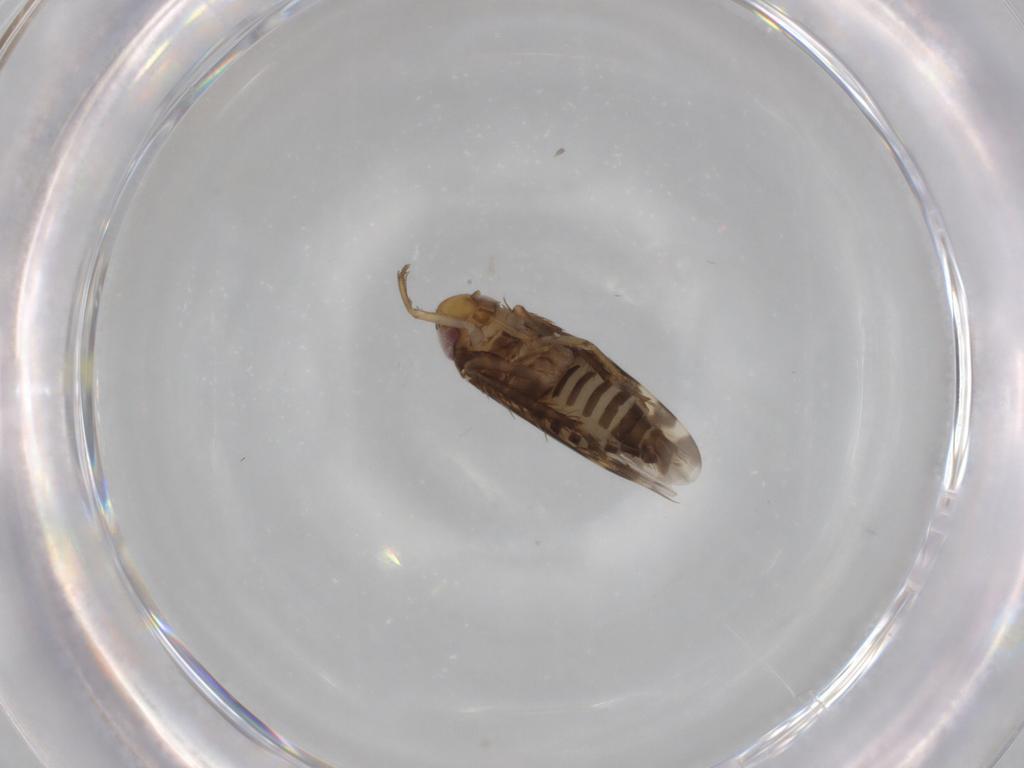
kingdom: Animalia
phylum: Arthropoda
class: Insecta
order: Hemiptera
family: Cicadellidae
